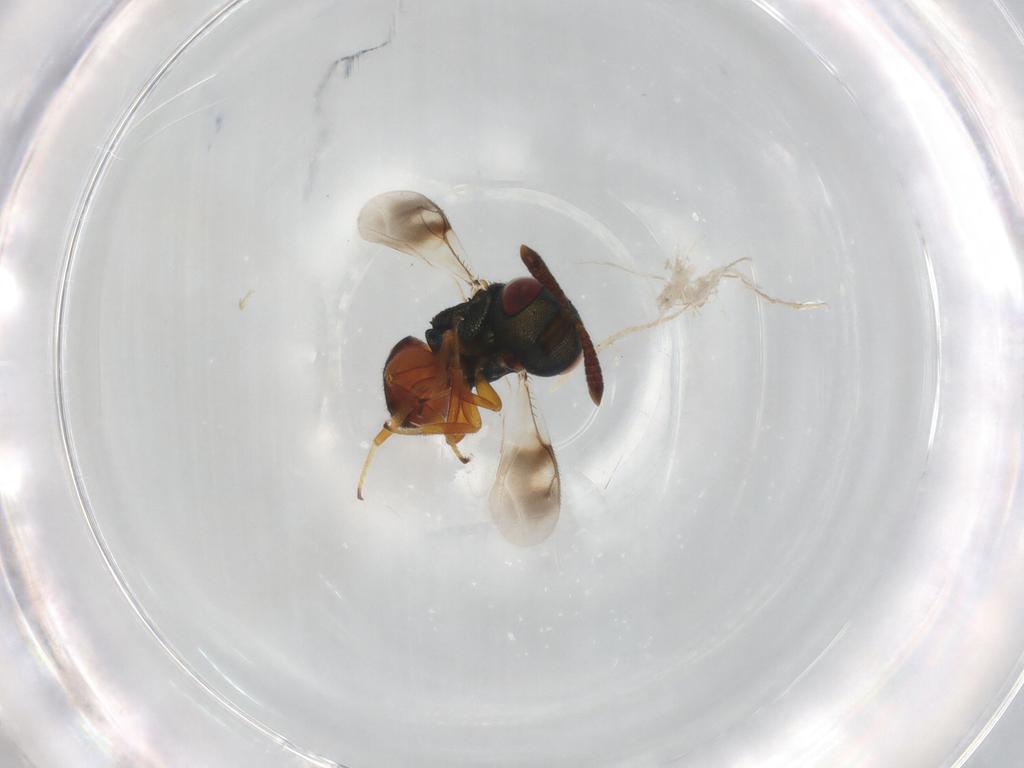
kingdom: Animalia
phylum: Arthropoda
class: Insecta
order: Hymenoptera
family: Pteromalidae
